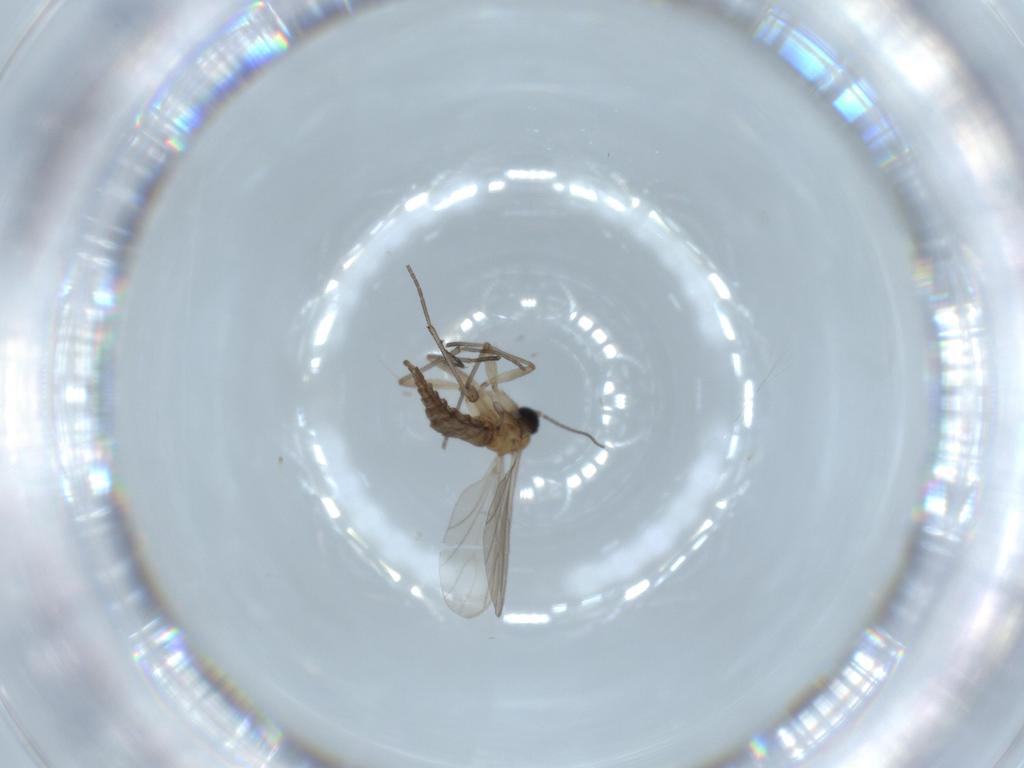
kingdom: Animalia
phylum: Arthropoda
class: Insecta
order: Diptera
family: Sciaridae
